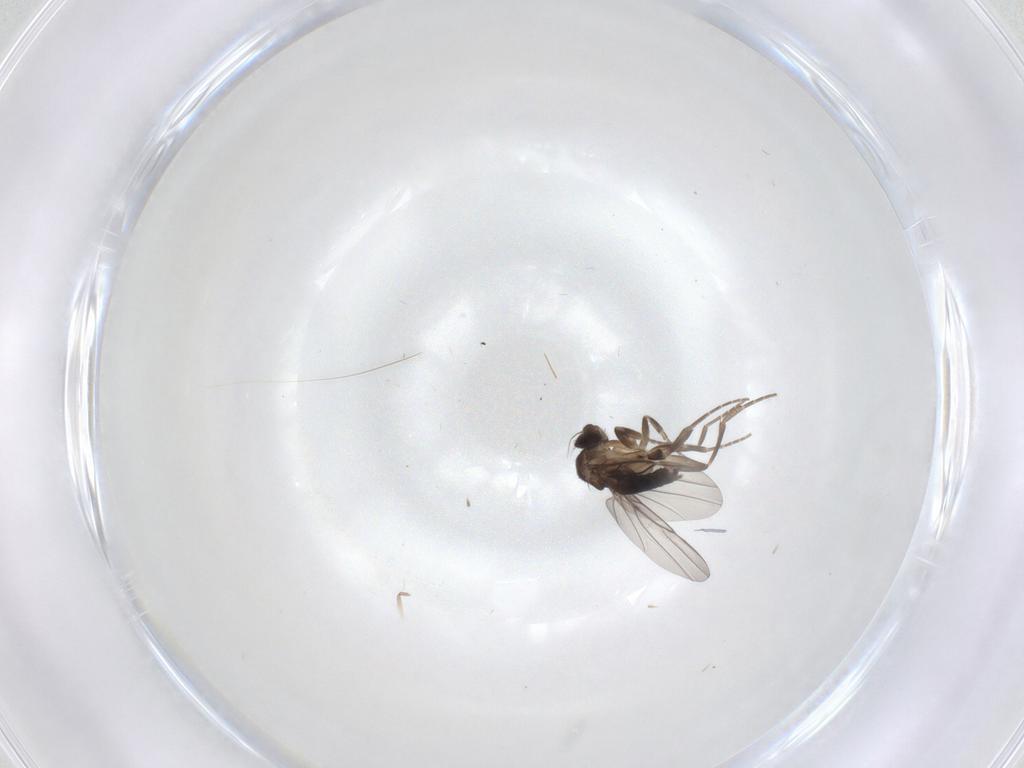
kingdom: Animalia
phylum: Arthropoda
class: Insecta
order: Diptera
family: Phoridae
